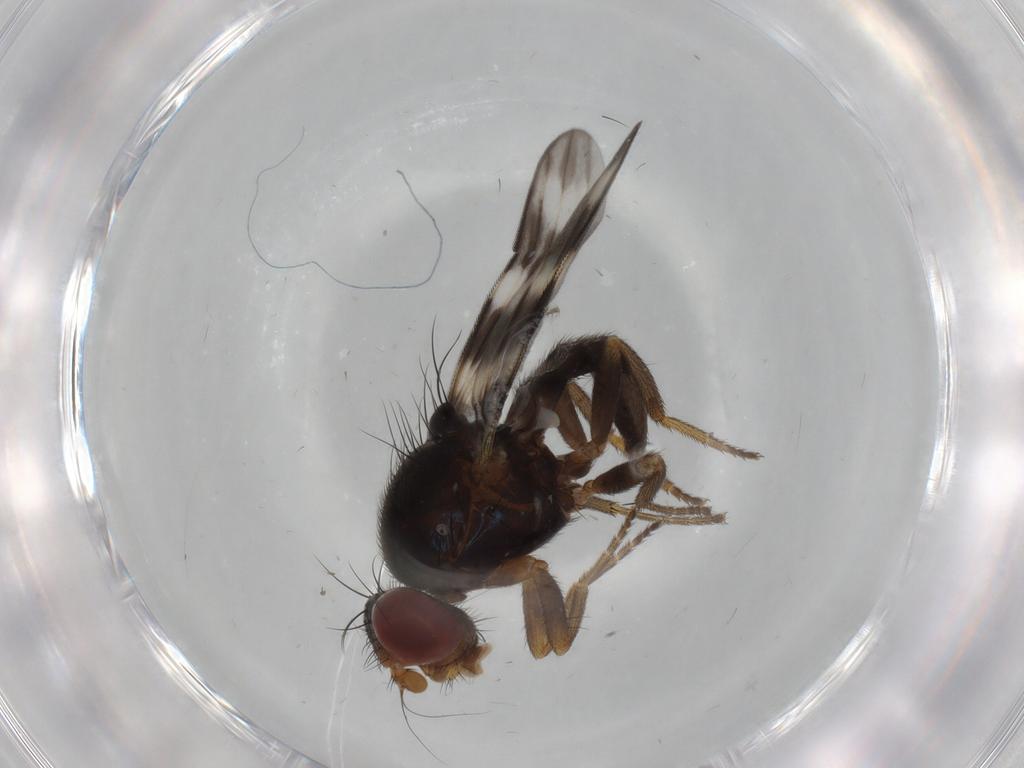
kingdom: Animalia
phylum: Arthropoda
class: Insecta
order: Diptera
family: Ulidiidae
